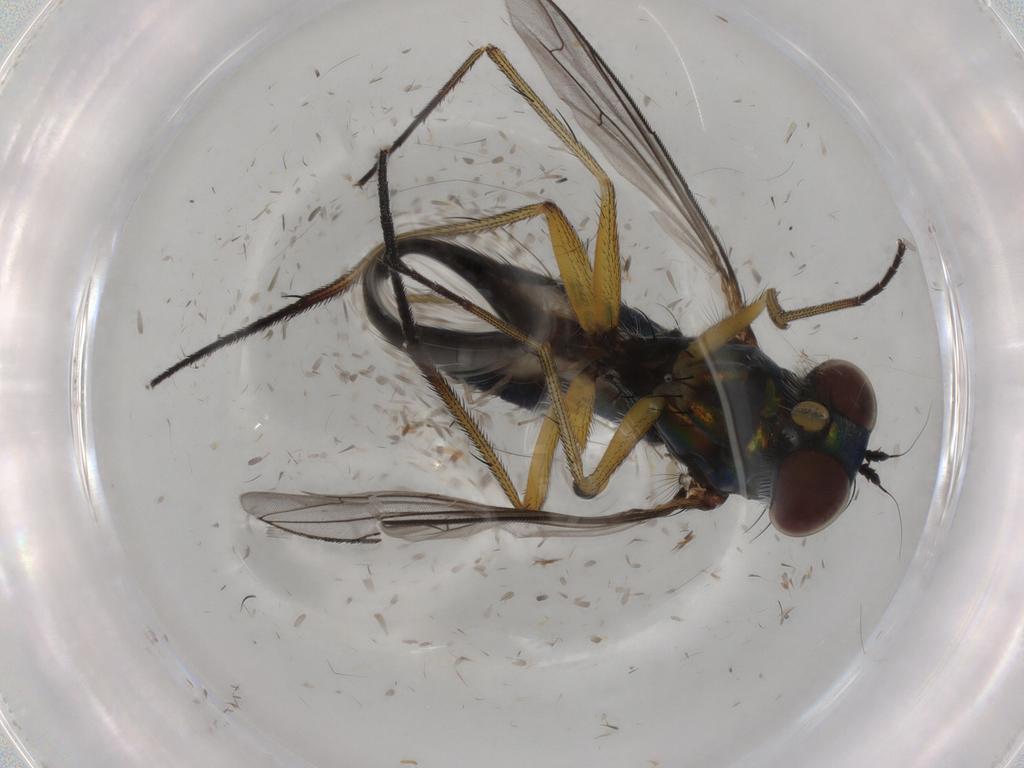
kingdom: Animalia
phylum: Arthropoda
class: Insecta
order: Diptera
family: Dolichopodidae
